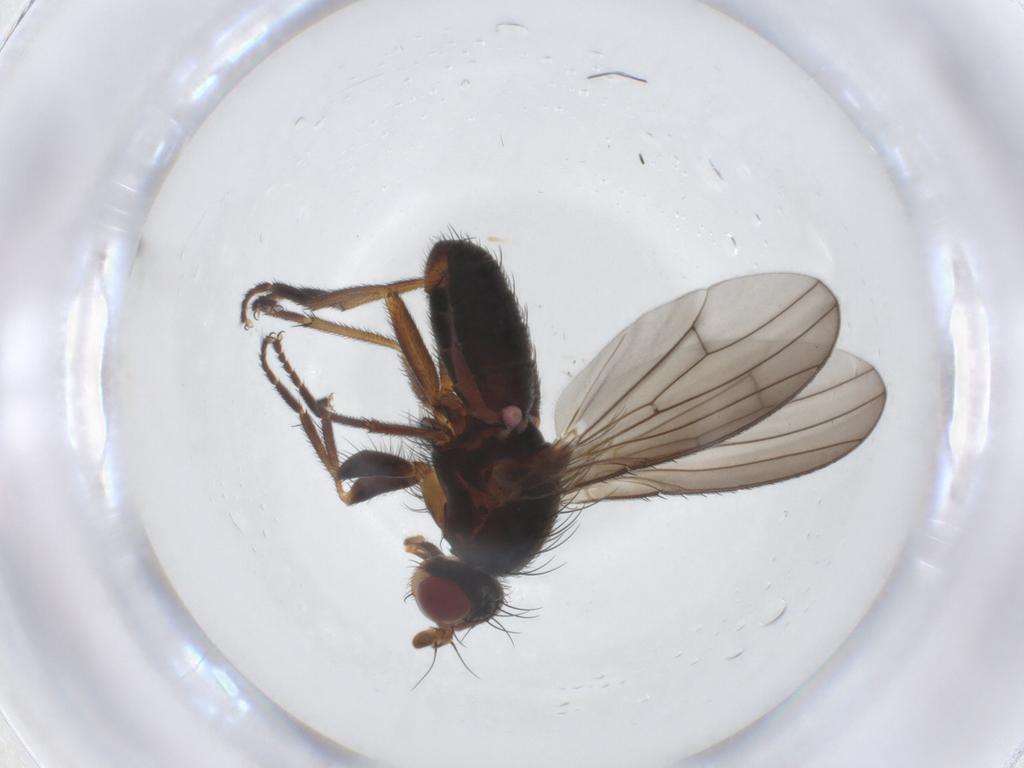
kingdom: Animalia
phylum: Arthropoda
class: Insecta
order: Diptera
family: Heleomyzidae
